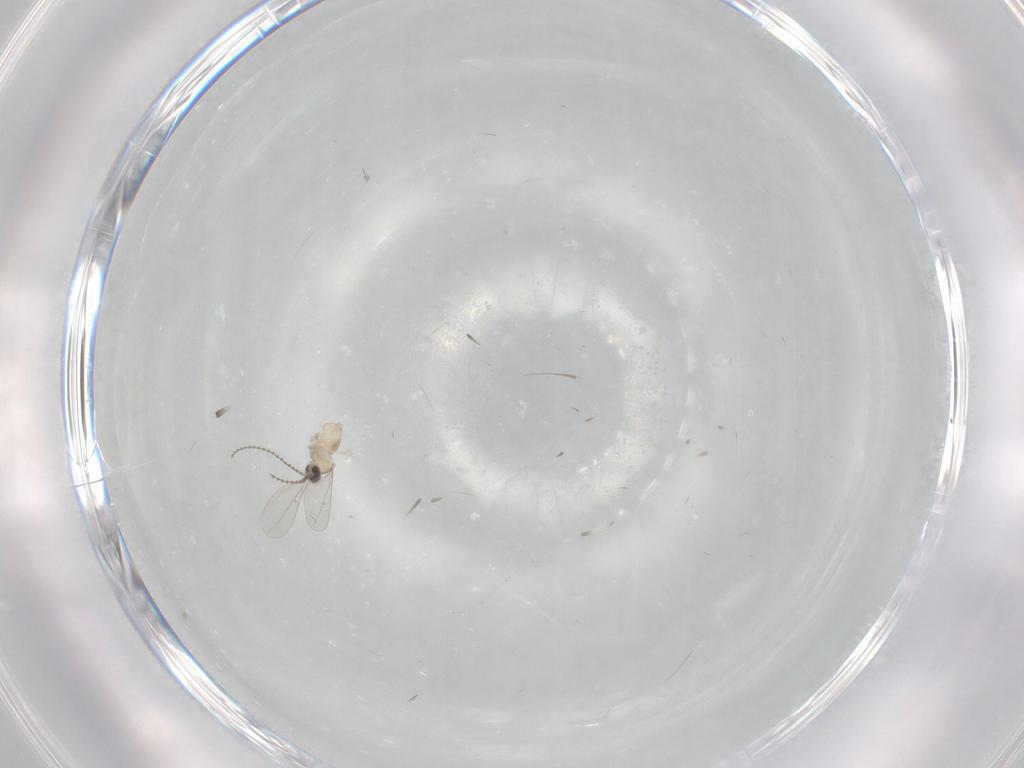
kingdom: Animalia
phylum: Arthropoda
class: Insecta
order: Diptera
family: Cecidomyiidae
